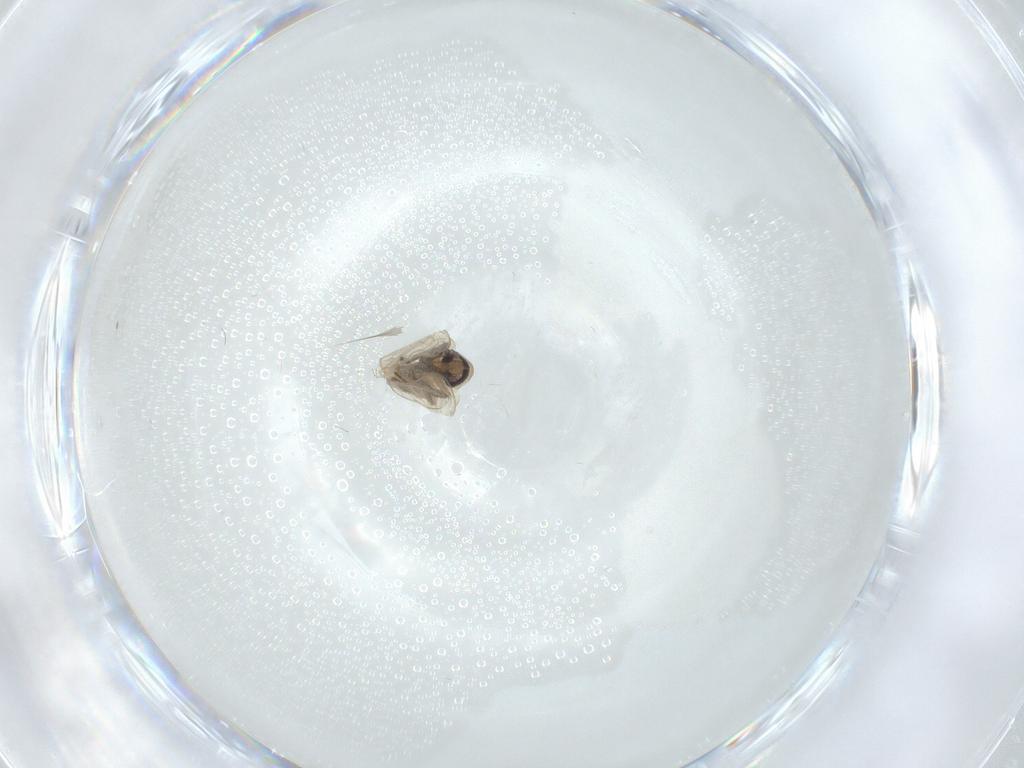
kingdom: Animalia
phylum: Arthropoda
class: Insecta
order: Diptera
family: Psychodidae
